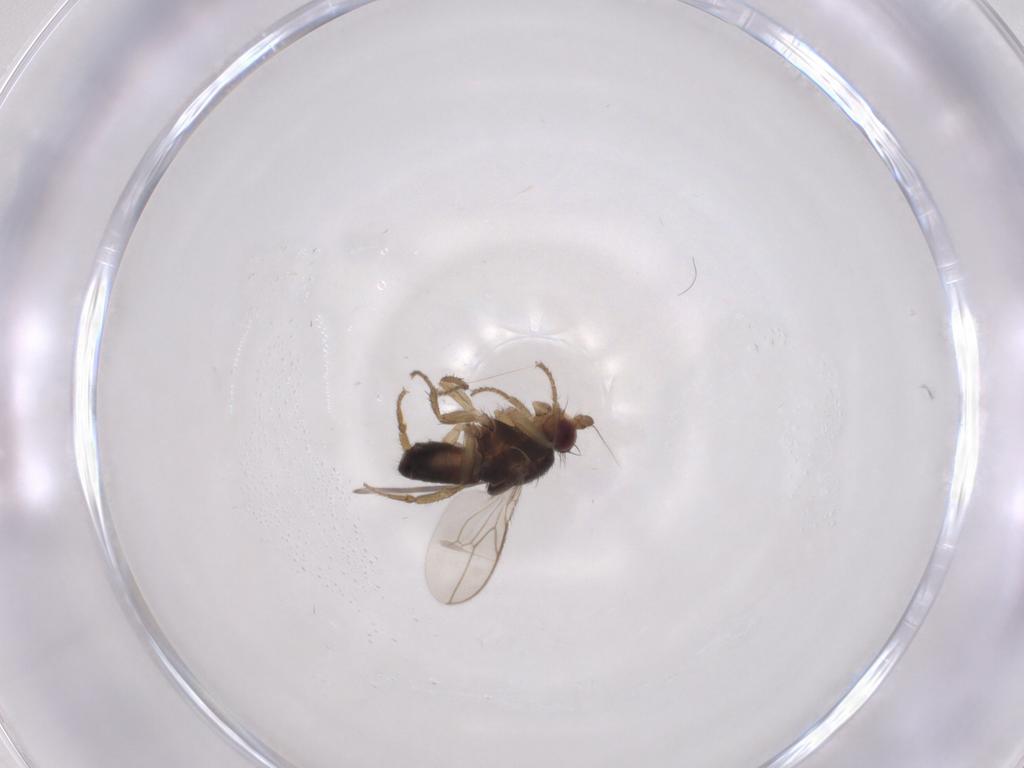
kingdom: Animalia
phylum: Arthropoda
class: Insecta
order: Diptera
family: Sphaeroceridae
